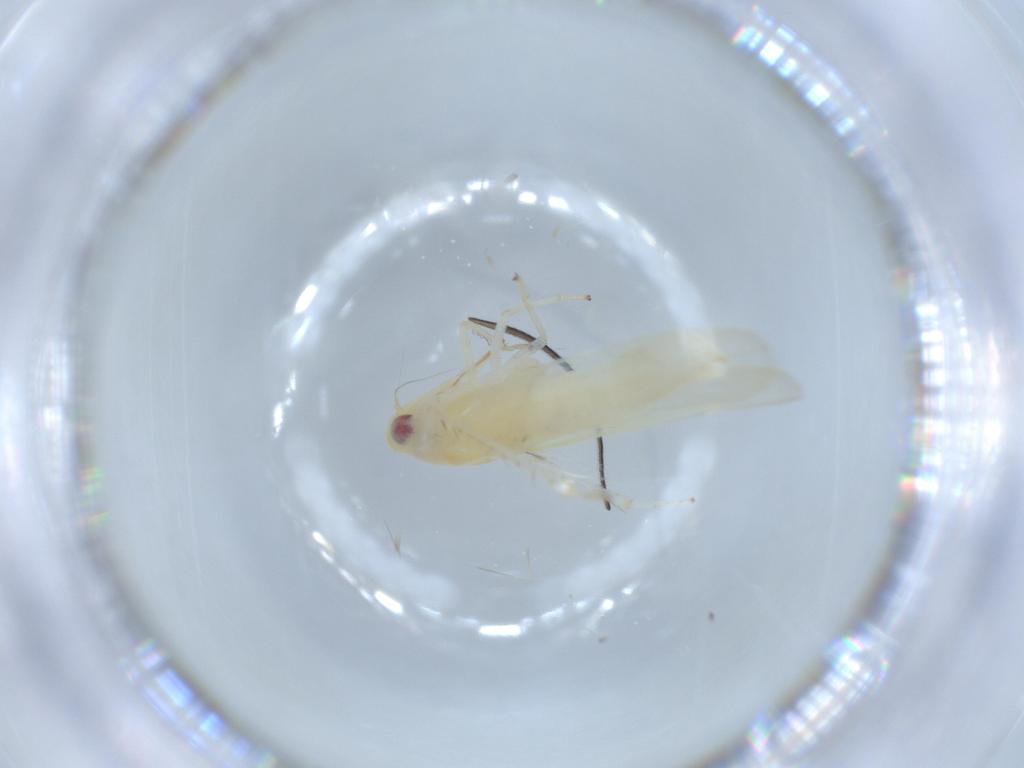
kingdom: Animalia
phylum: Arthropoda
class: Insecta
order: Hemiptera
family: Cicadellidae
